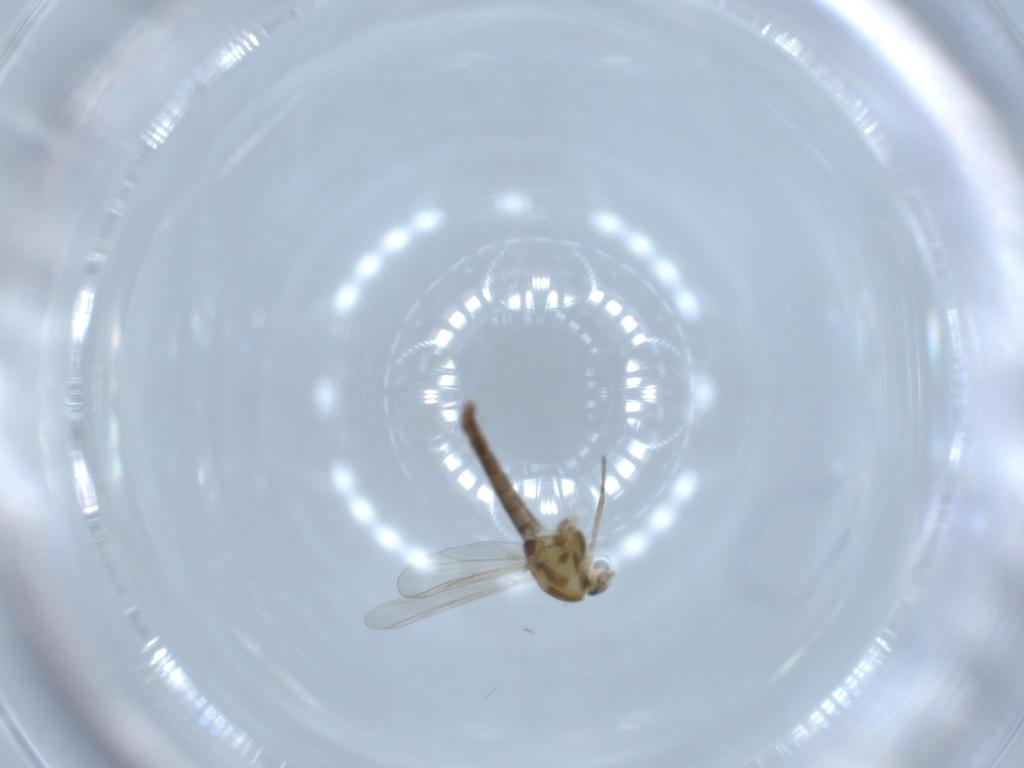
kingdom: Animalia
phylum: Arthropoda
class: Insecta
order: Diptera
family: Chironomidae
